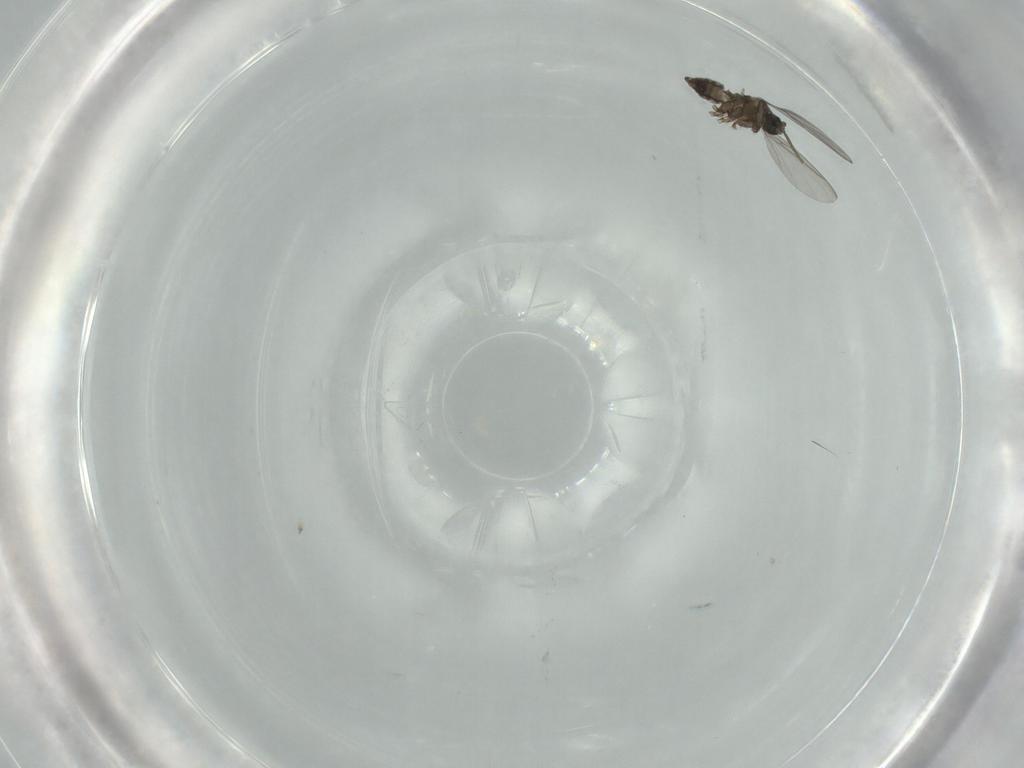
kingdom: Animalia
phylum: Arthropoda
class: Insecta
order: Diptera
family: Sciaridae
